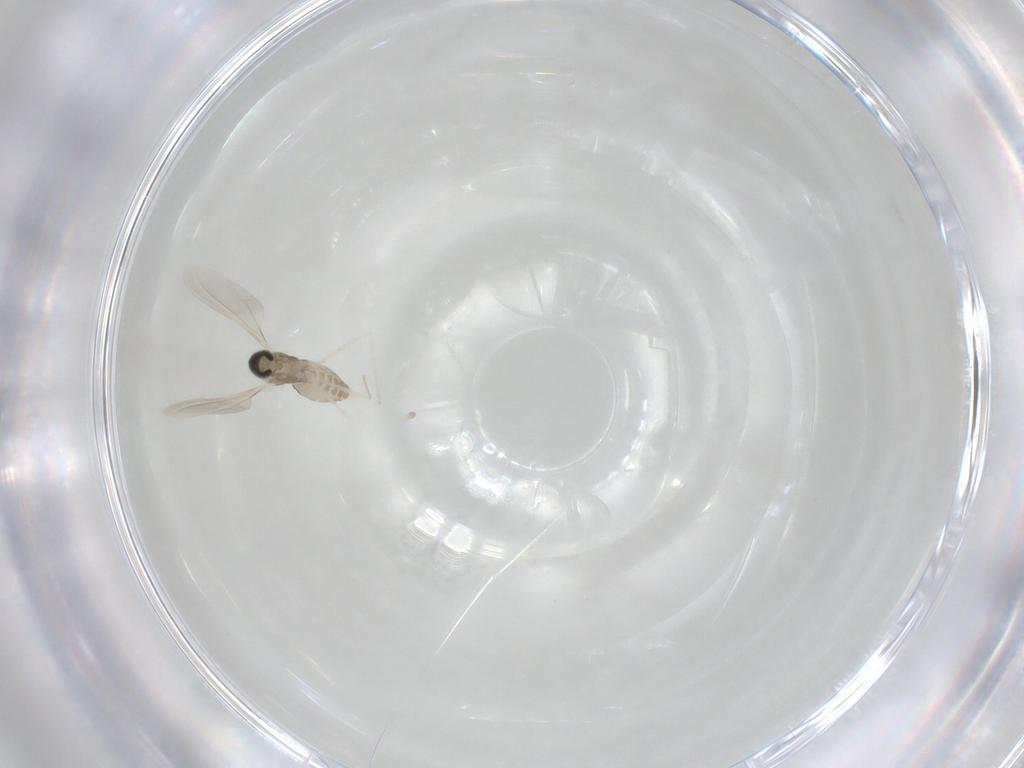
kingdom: Animalia
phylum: Arthropoda
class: Insecta
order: Diptera
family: Cecidomyiidae
